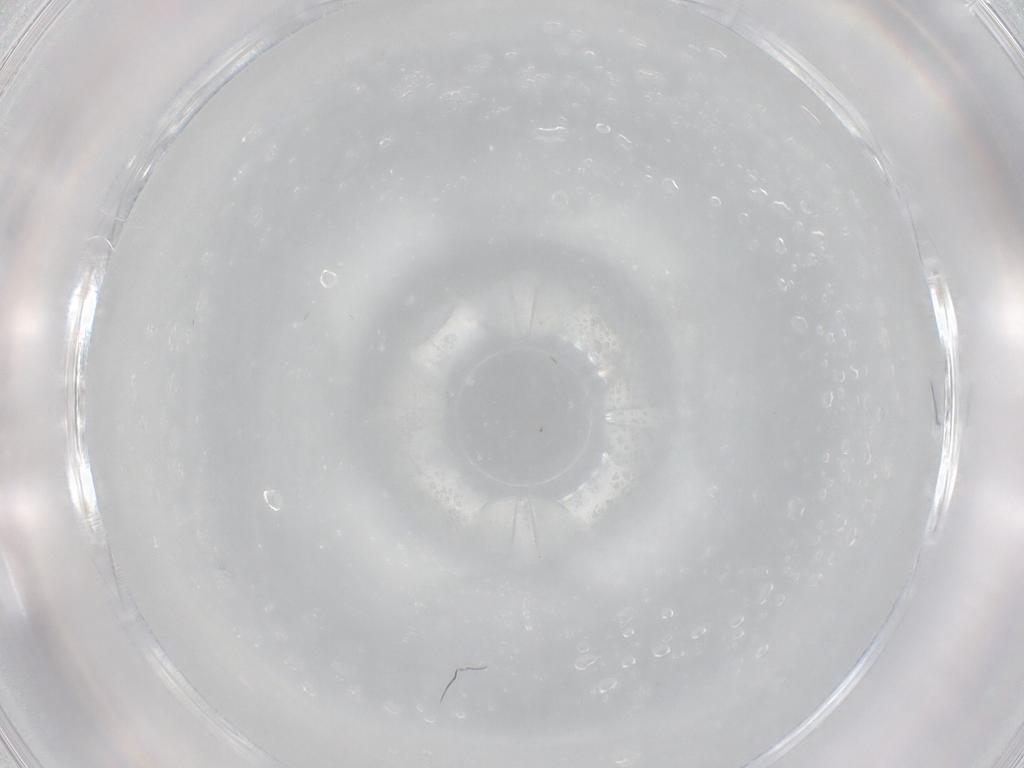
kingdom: Animalia
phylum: Arthropoda
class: Insecta
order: Diptera
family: Dolichopodidae
